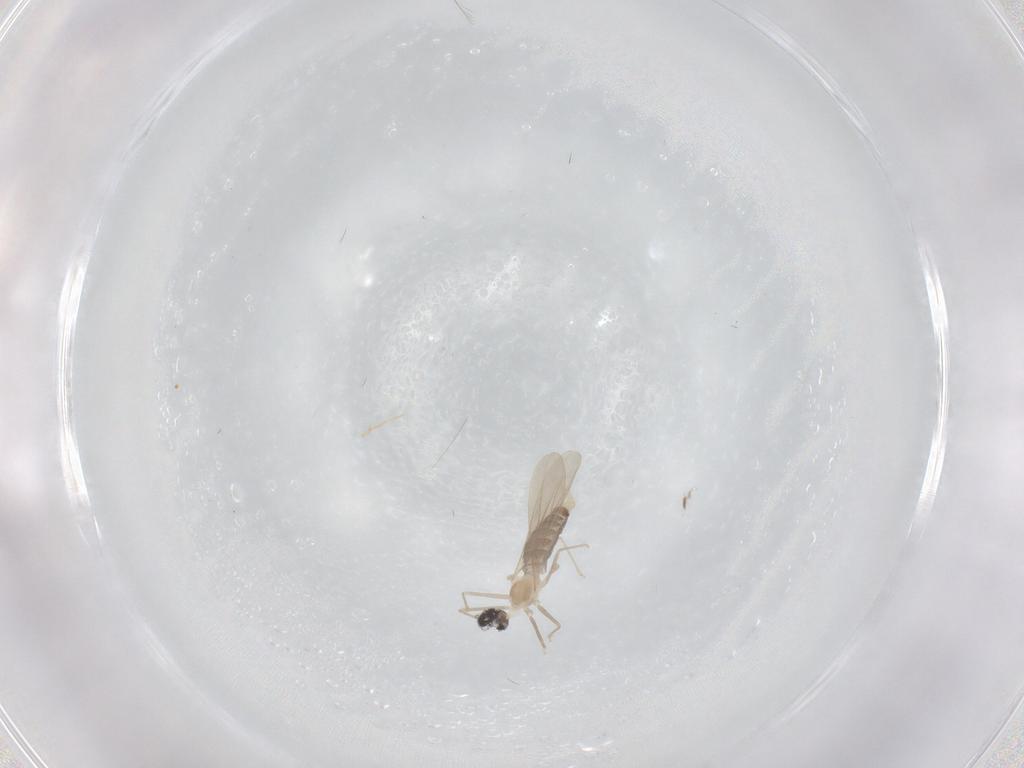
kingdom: Animalia
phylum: Arthropoda
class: Insecta
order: Diptera
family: Cecidomyiidae
